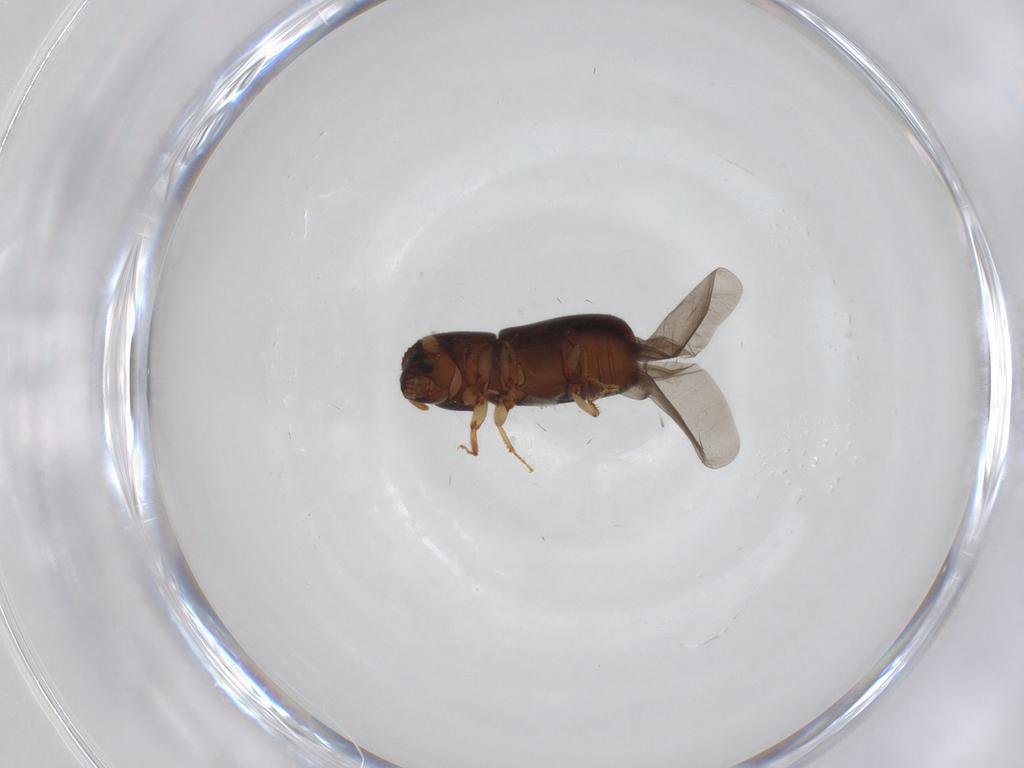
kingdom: Animalia
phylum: Arthropoda
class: Insecta
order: Coleoptera
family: Curculionidae
